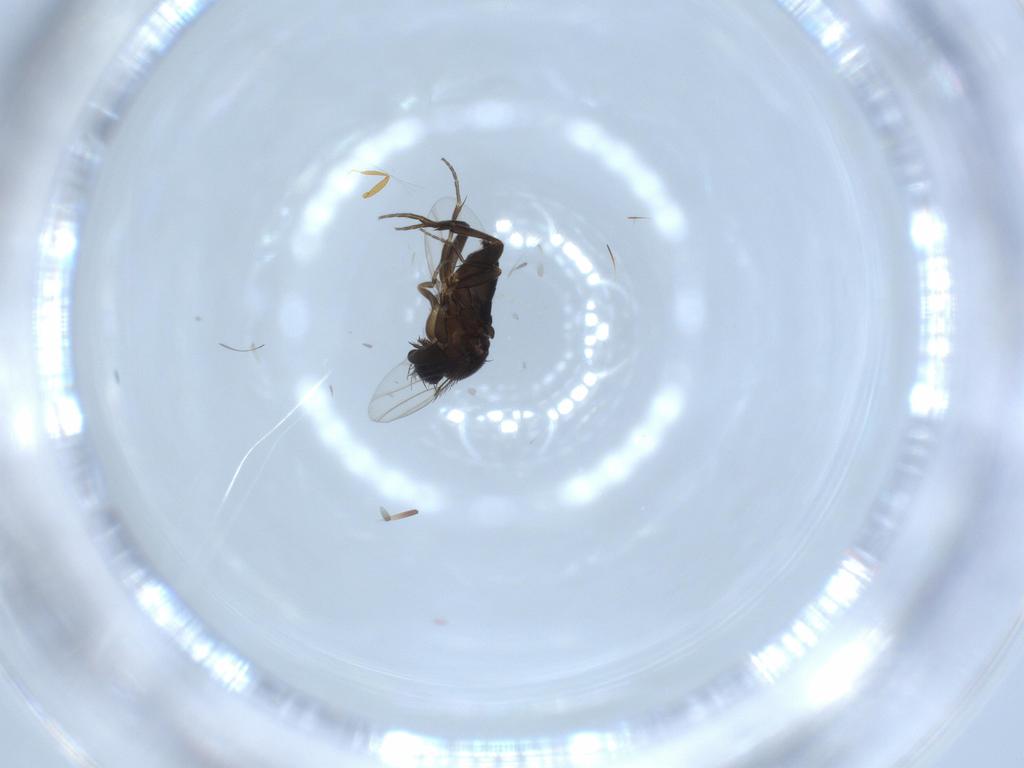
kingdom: Animalia
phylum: Arthropoda
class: Insecta
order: Diptera
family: Phoridae
